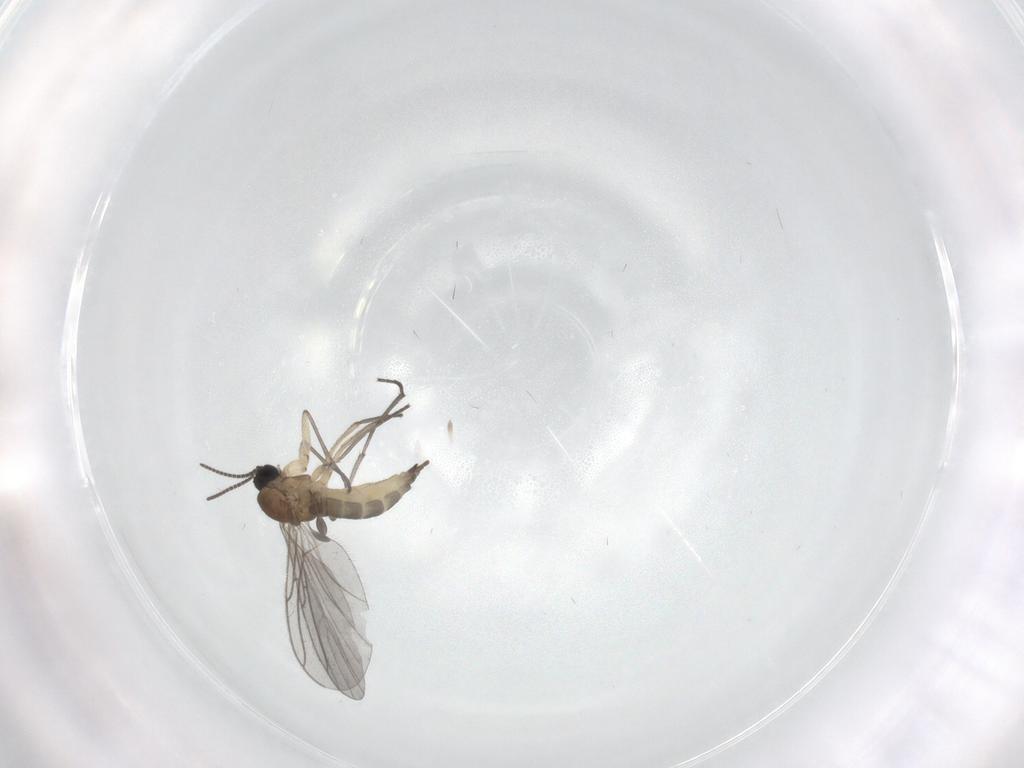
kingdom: Animalia
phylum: Arthropoda
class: Insecta
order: Diptera
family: Sciaridae
